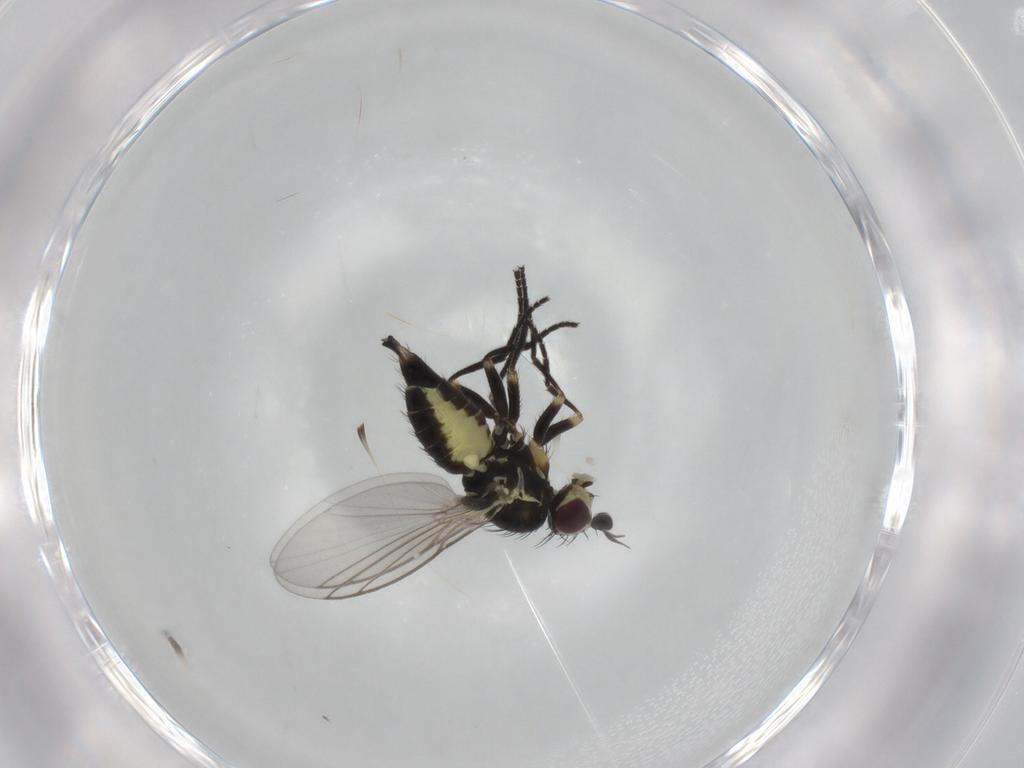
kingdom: Animalia
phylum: Arthropoda
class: Insecta
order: Diptera
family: Agromyzidae
